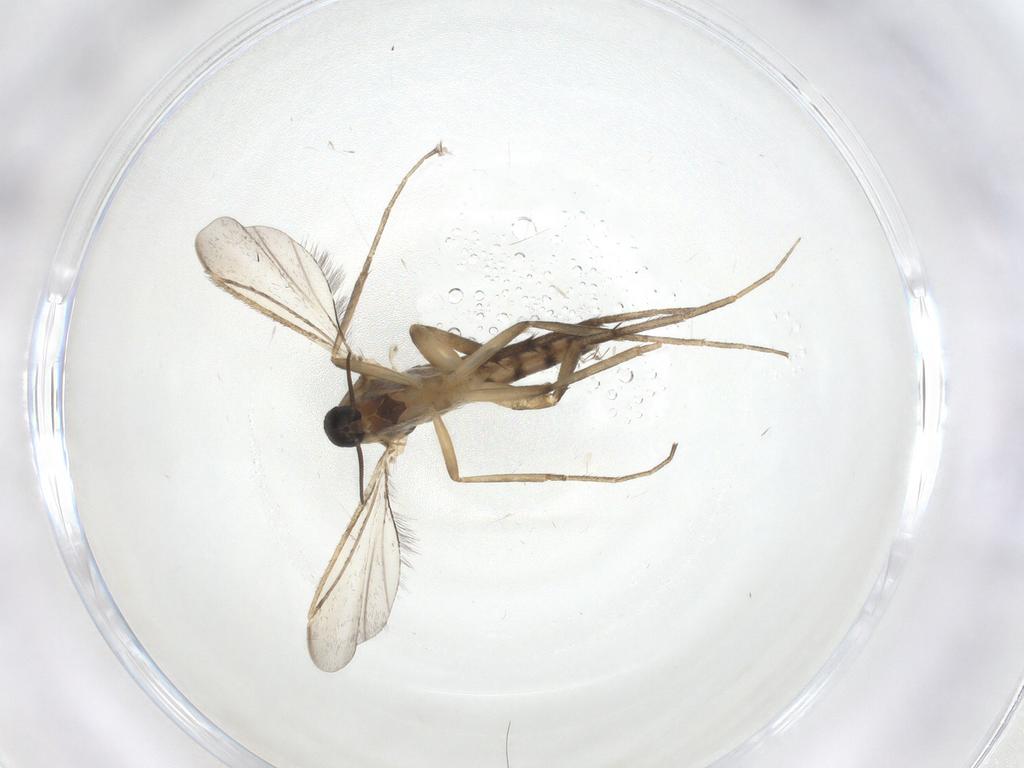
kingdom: Animalia
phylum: Arthropoda
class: Insecta
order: Diptera
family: Chironomidae
